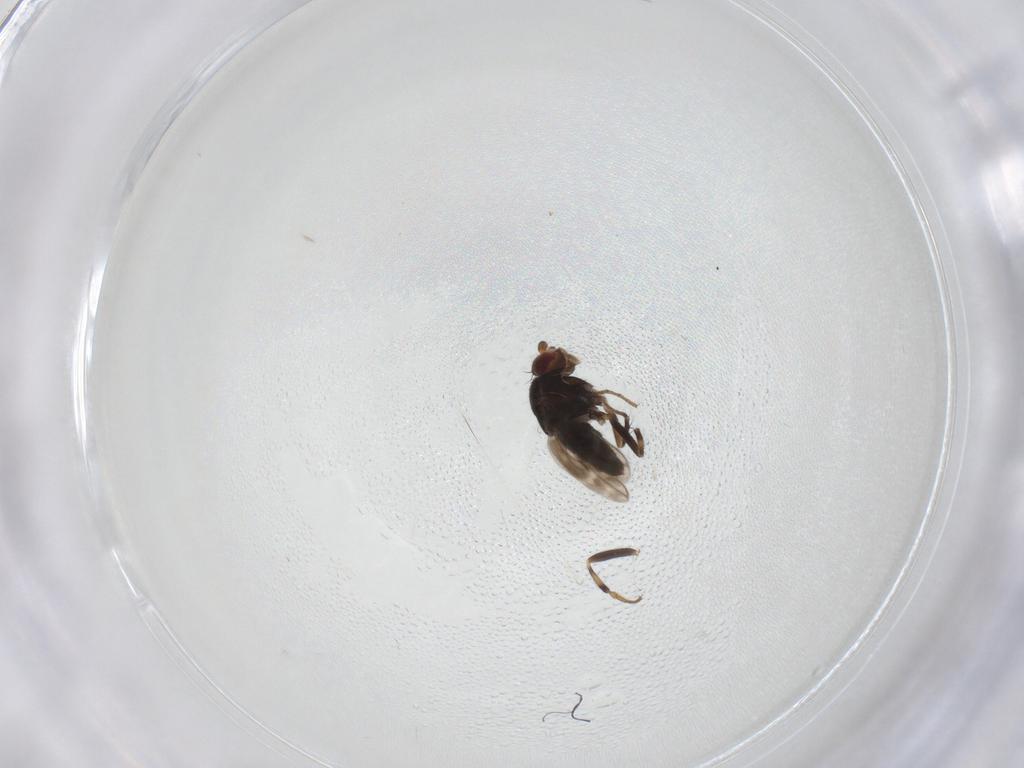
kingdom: Animalia
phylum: Arthropoda
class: Insecta
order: Diptera
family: Sphaeroceridae
